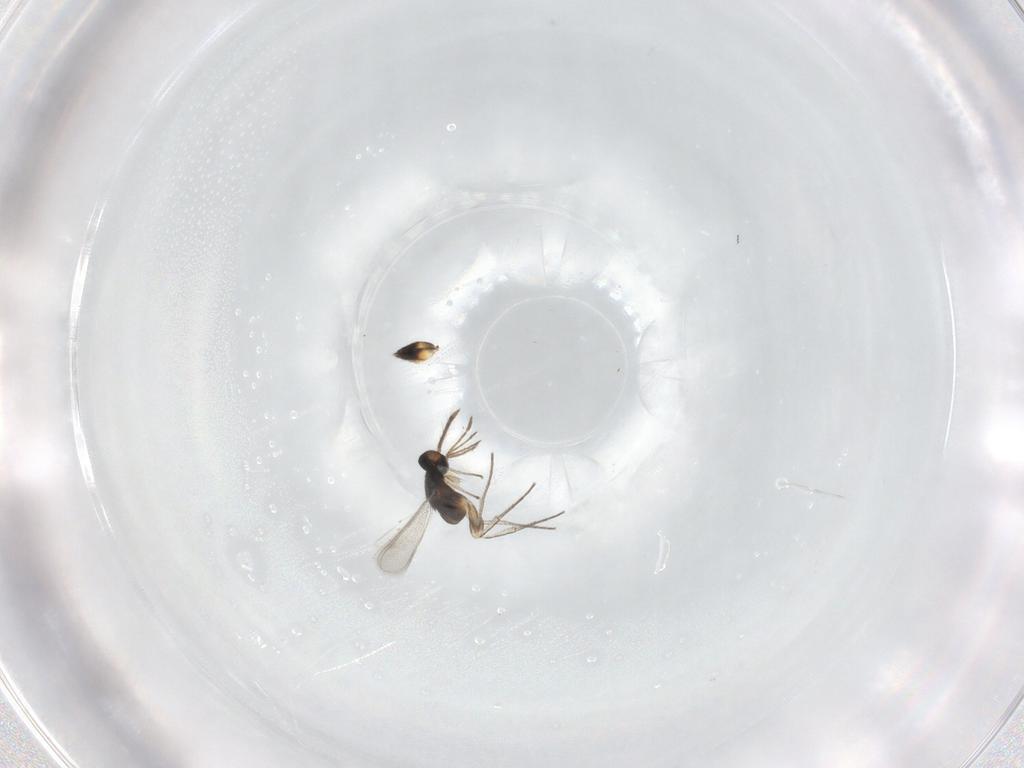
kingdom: Animalia
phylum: Arthropoda
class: Insecta
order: Hymenoptera
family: Eulophidae
